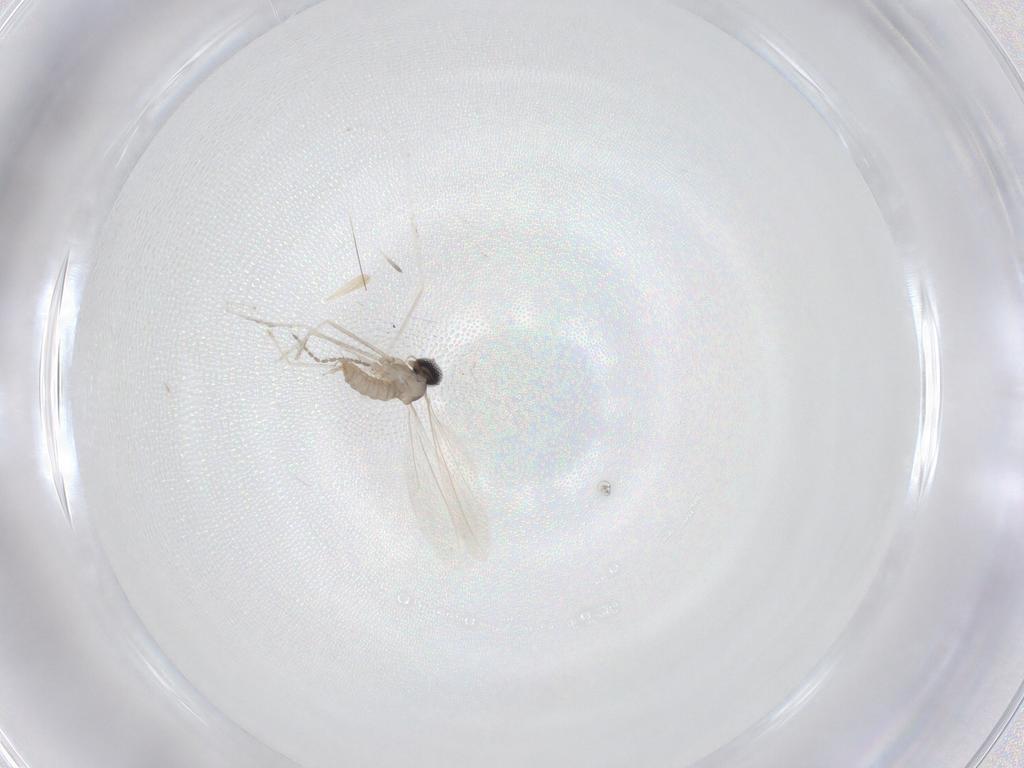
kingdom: Animalia
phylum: Arthropoda
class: Insecta
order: Diptera
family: Cecidomyiidae
